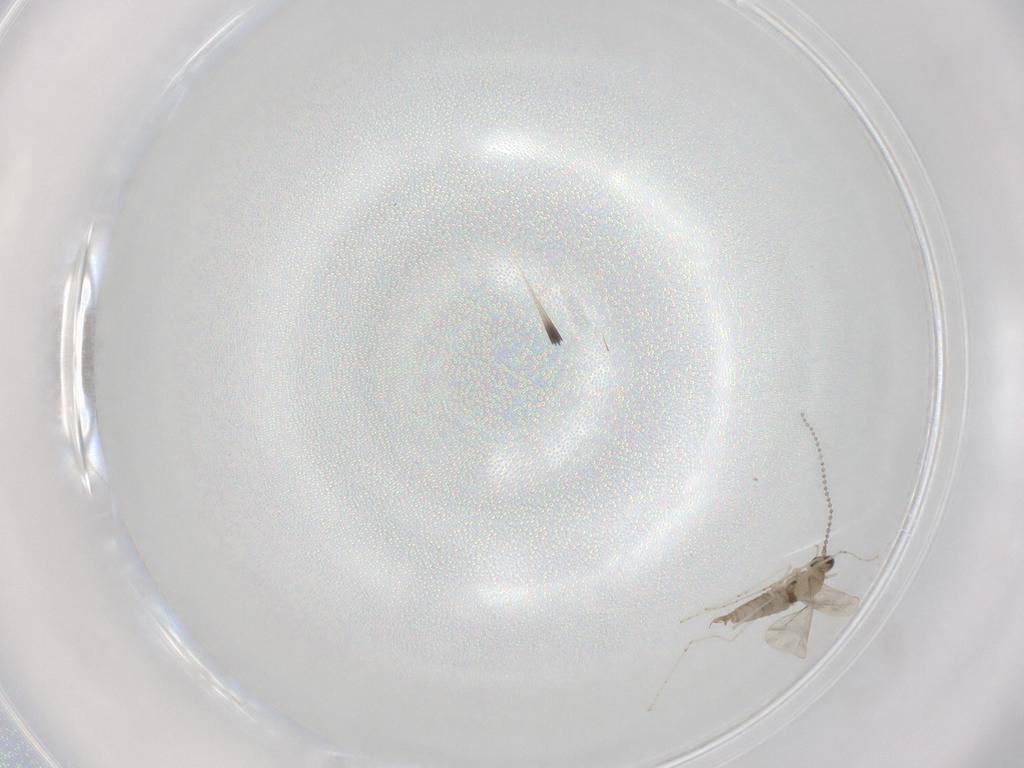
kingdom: Animalia
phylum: Arthropoda
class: Insecta
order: Diptera
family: Cecidomyiidae
